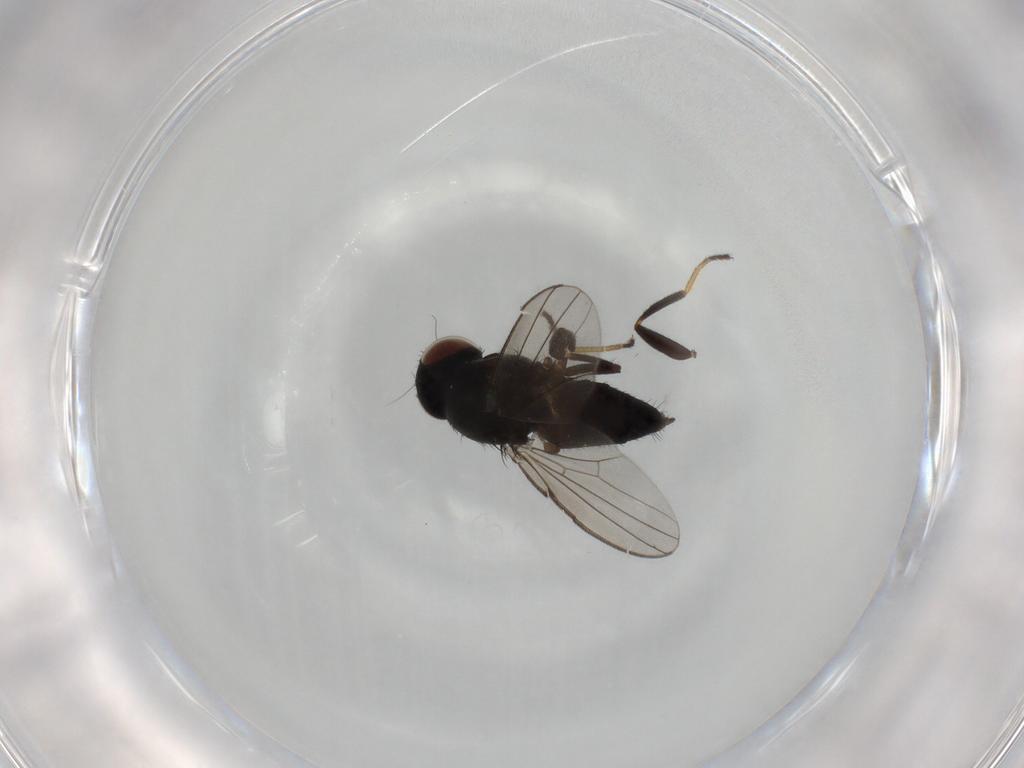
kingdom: Animalia
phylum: Arthropoda
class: Insecta
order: Diptera
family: Milichiidae
